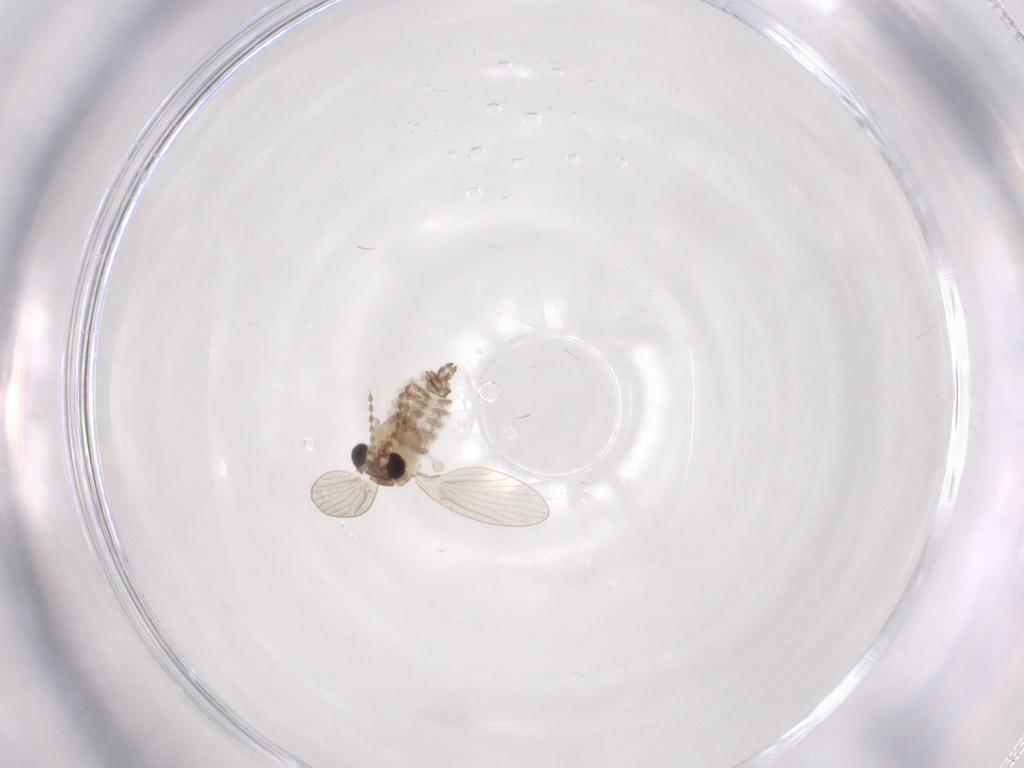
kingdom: Animalia
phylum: Arthropoda
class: Insecta
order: Diptera
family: Psychodidae
